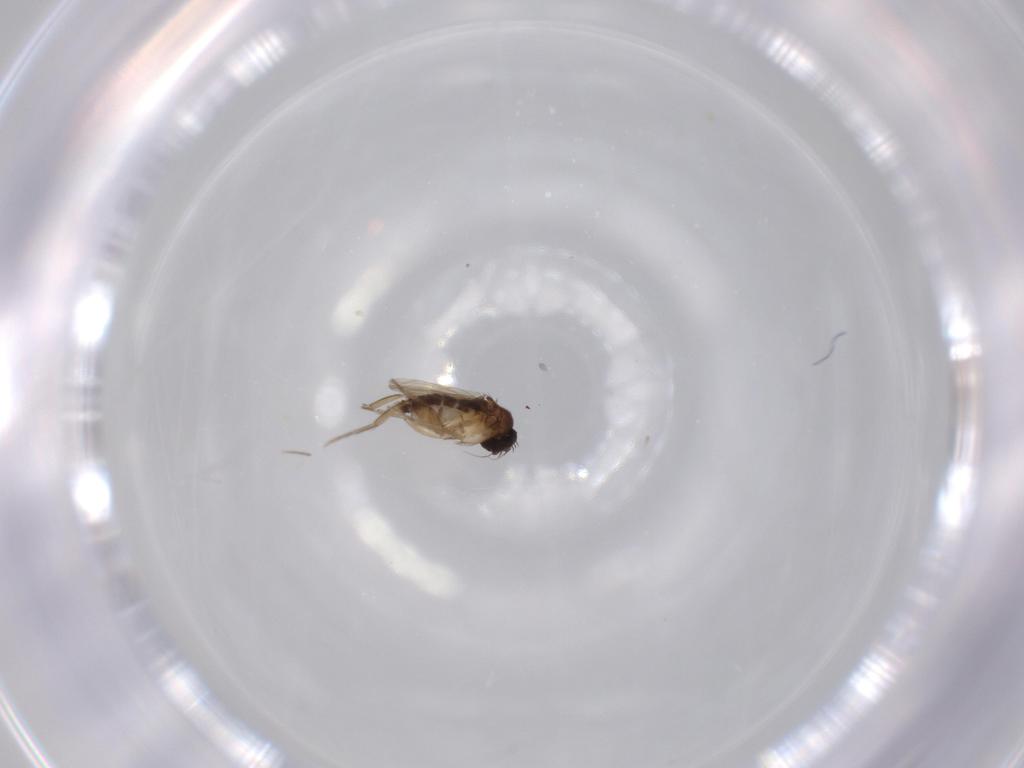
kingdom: Animalia
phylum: Arthropoda
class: Insecta
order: Diptera
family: Phoridae
